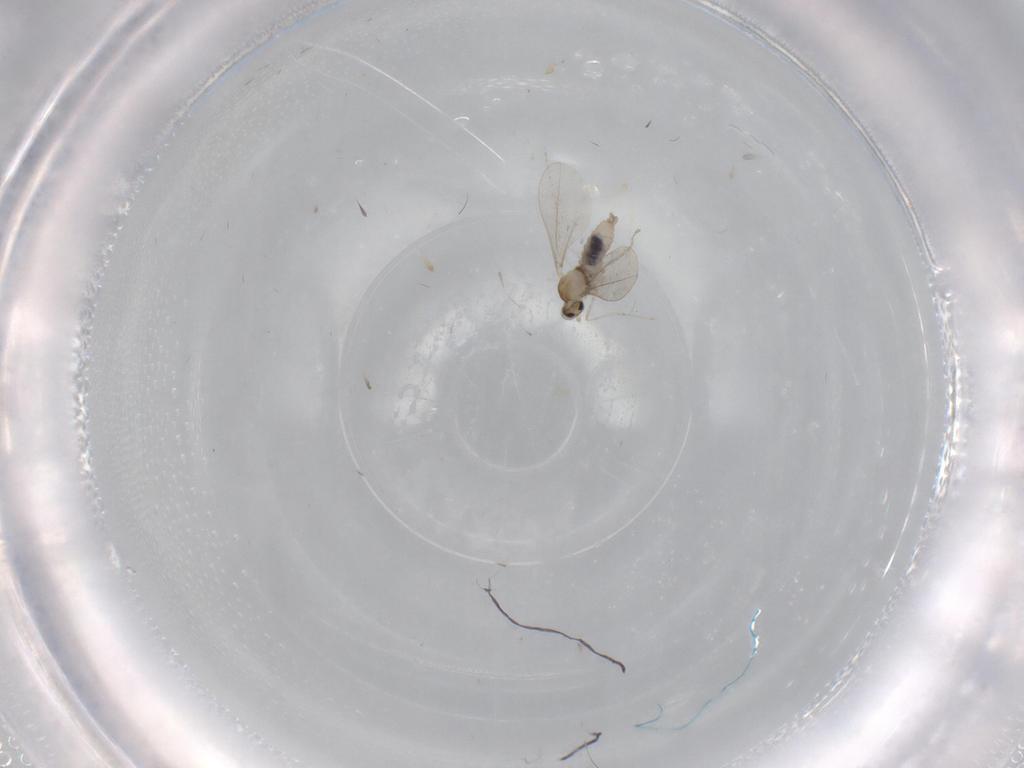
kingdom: Animalia
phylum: Arthropoda
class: Insecta
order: Diptera
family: Cecidomyiidae
